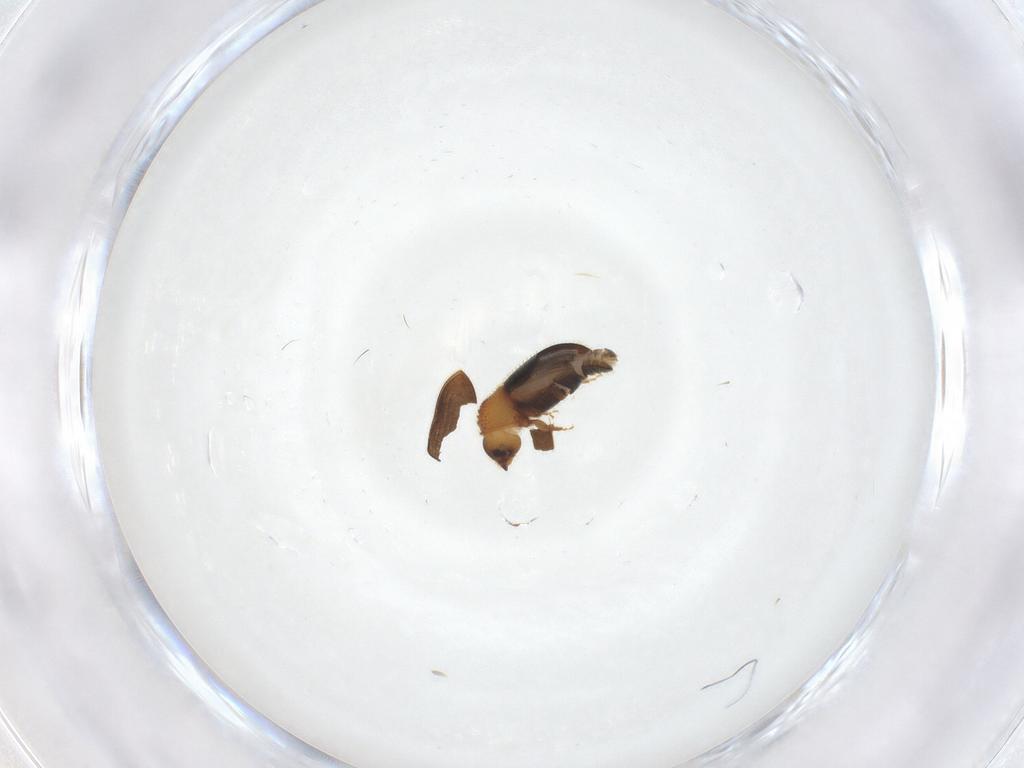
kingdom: Animalia
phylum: Arthropoda
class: Insecta
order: Coleoptera
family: Curculionidae
